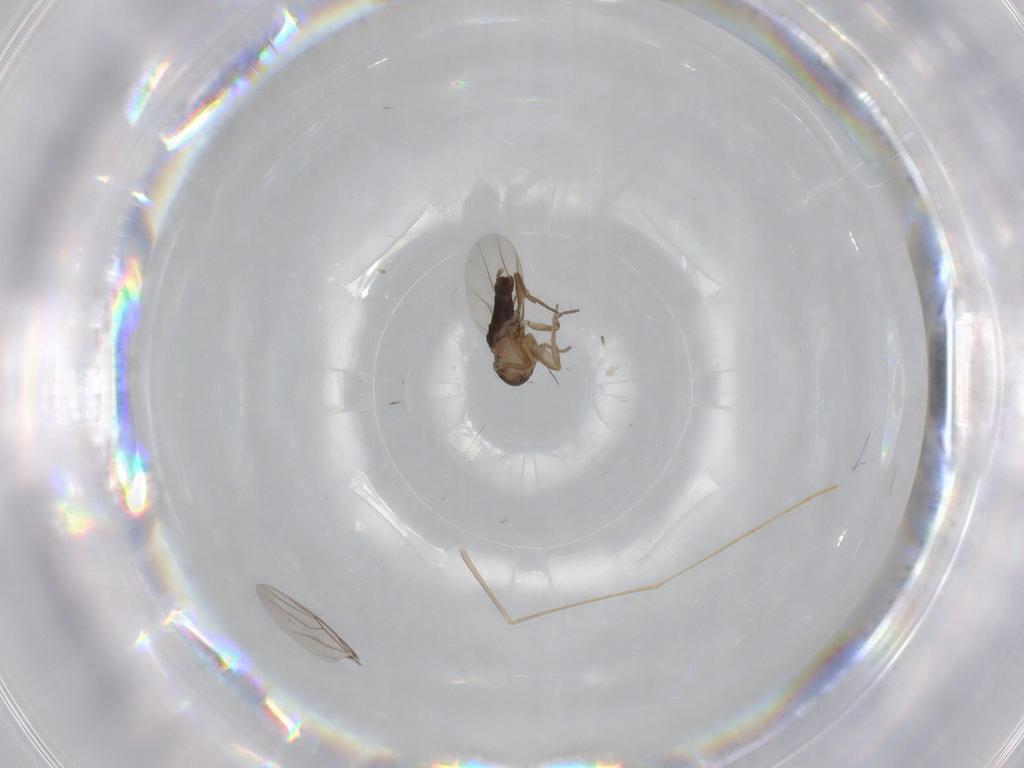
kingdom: Animalia
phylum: Arthropoda
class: Insecta
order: Diptera
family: Phoridae
